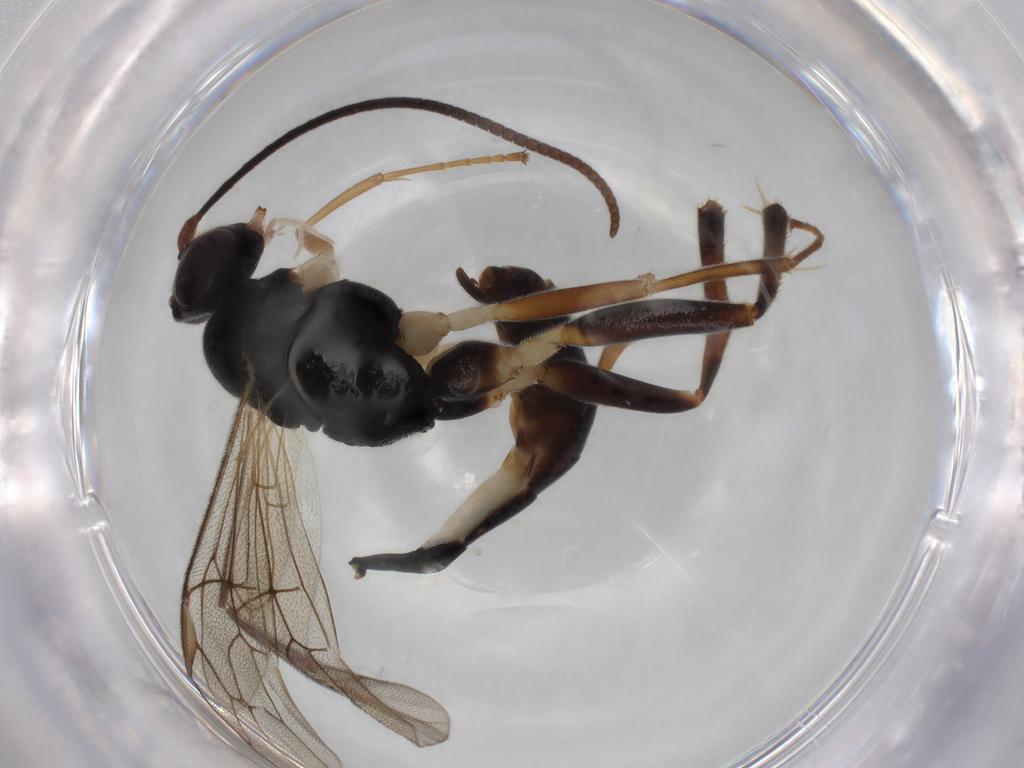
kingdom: Animalia
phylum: Arthropoda
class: Insecta
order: Hymenoptera
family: Ichneumonidae
